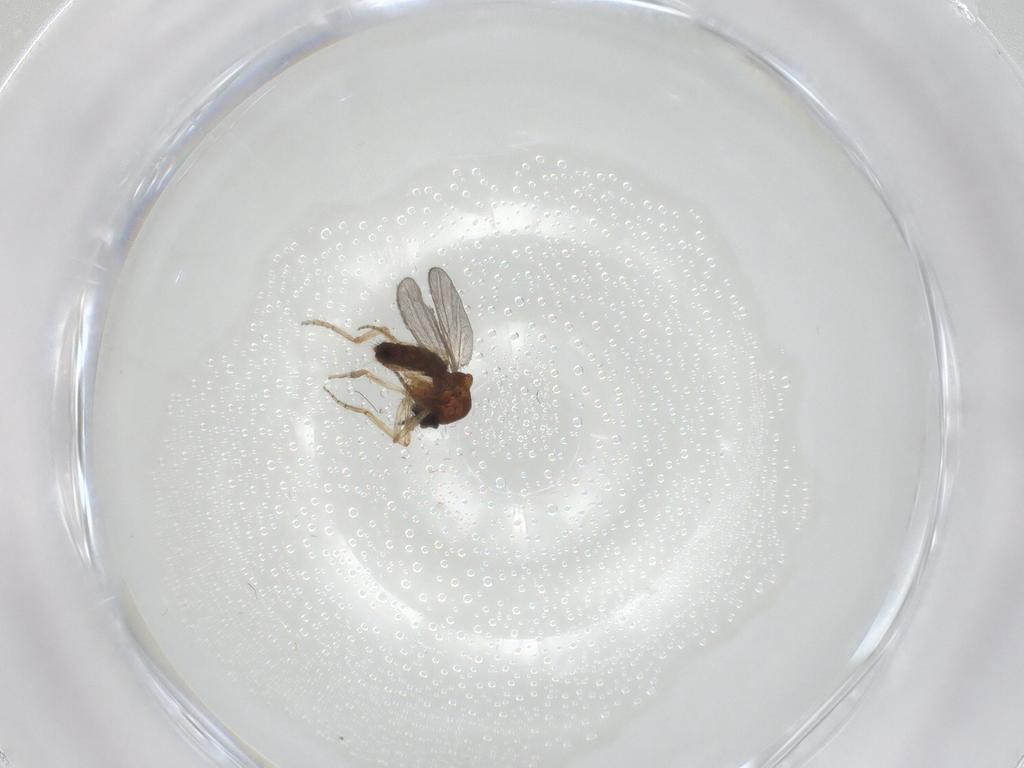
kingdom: Animalia
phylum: Arthropoda
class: Insecta
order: Diptera
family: Ceratopogonidae
